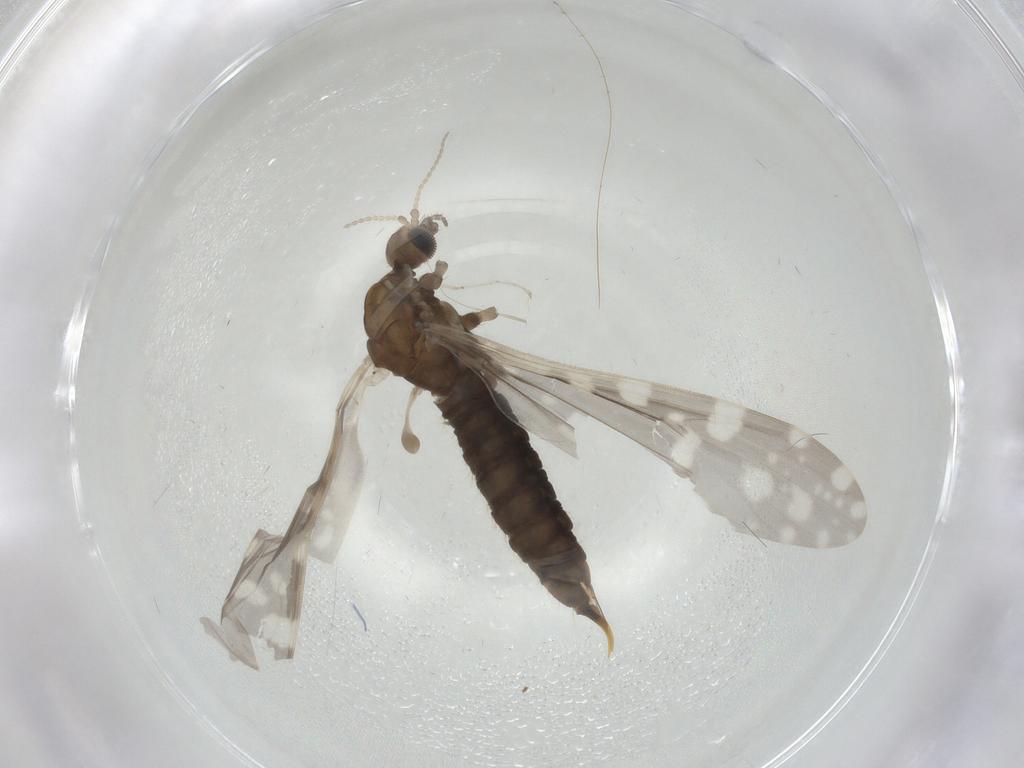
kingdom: Animalia
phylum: Arthropoda
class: Insecta
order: Diptera
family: Limoniidae
